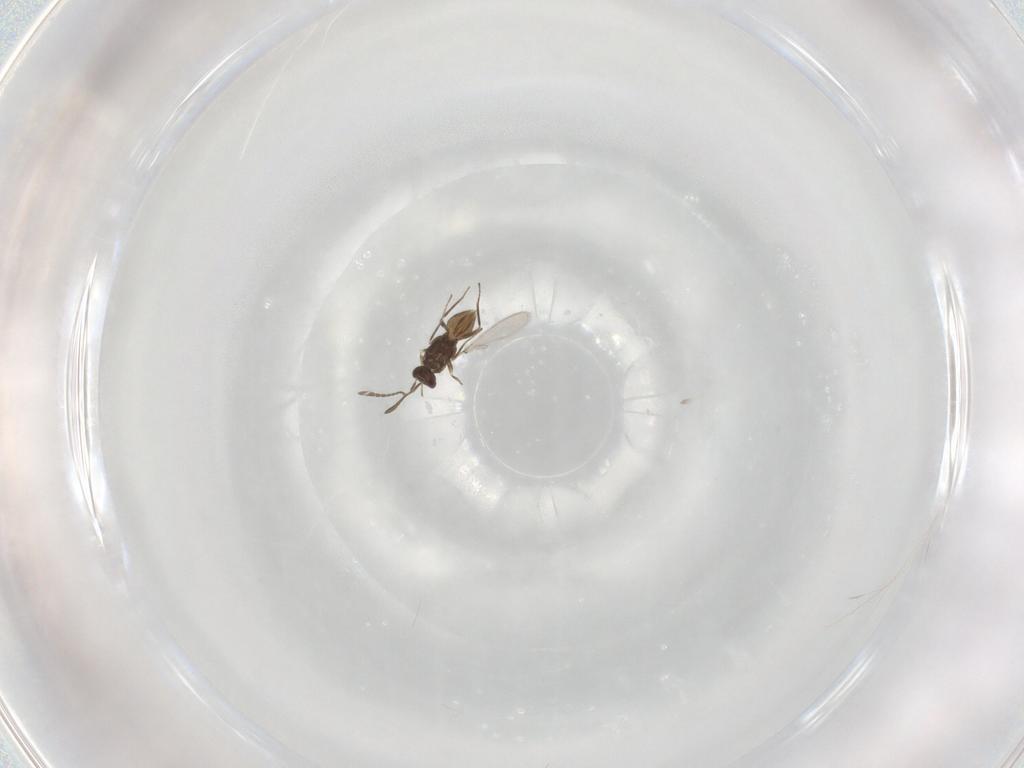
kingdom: Animalia
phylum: Arthropoda
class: Insecta
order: Hymenoptera
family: Mymaridae
